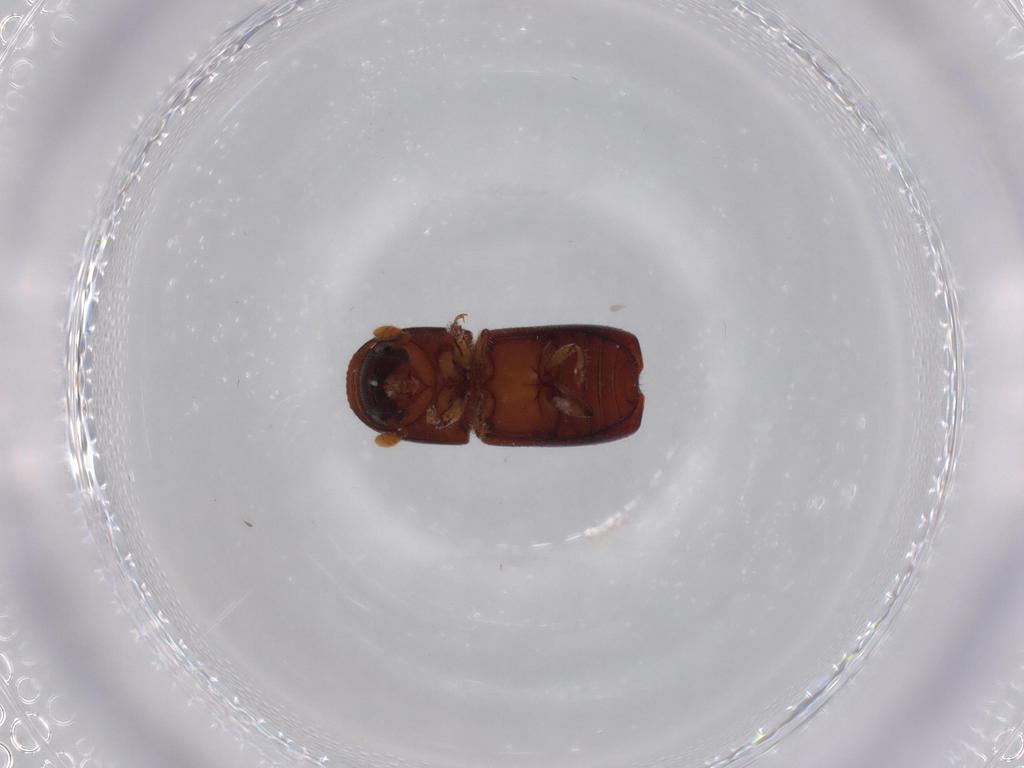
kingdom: Animalia
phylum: Arthropoda
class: Insecta
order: Coleoptera
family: Curculionidae
